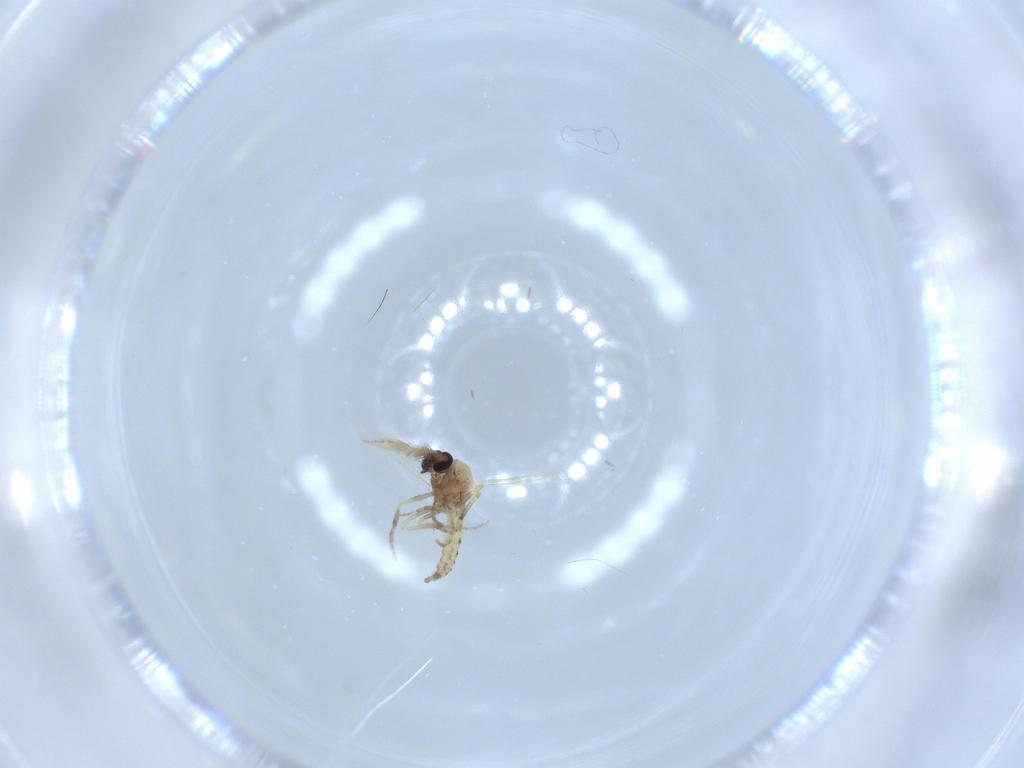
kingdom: Animalia
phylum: Arthropoda
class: Insecta
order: Diptera
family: Ceratopogonidae
